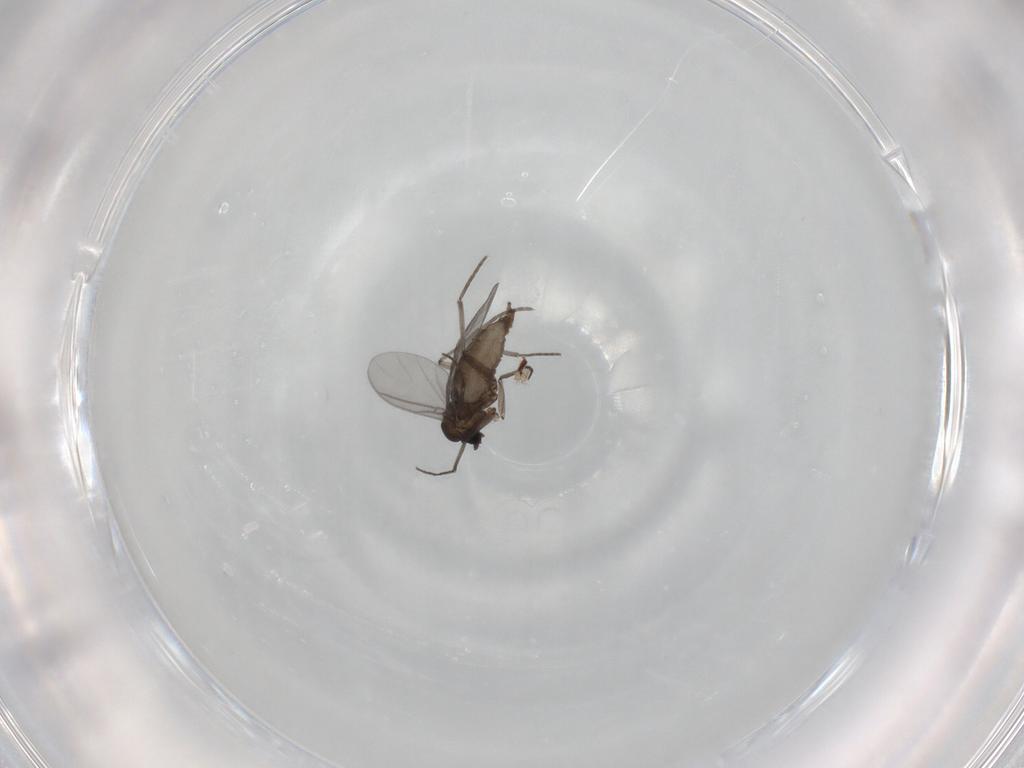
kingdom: Animalia
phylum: Arthropoda
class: Insecta
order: Diptera
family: Sciaridae
